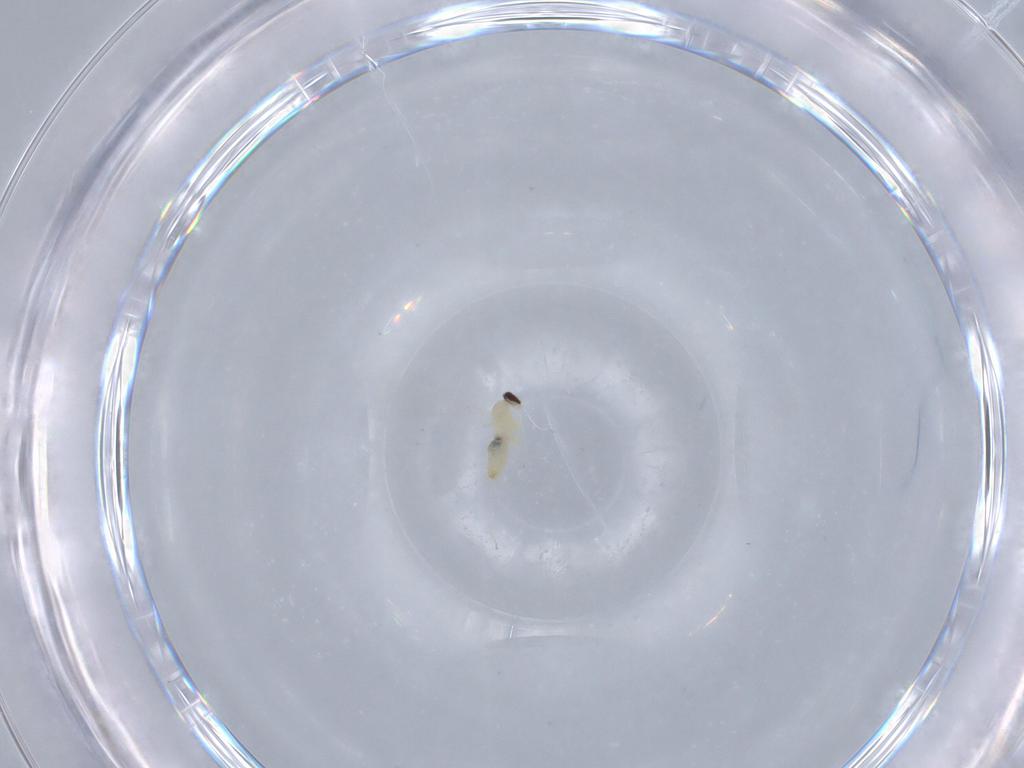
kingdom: Animalia
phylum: Arthropoda
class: Insecta
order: Diptera
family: Cecidomyiidae
